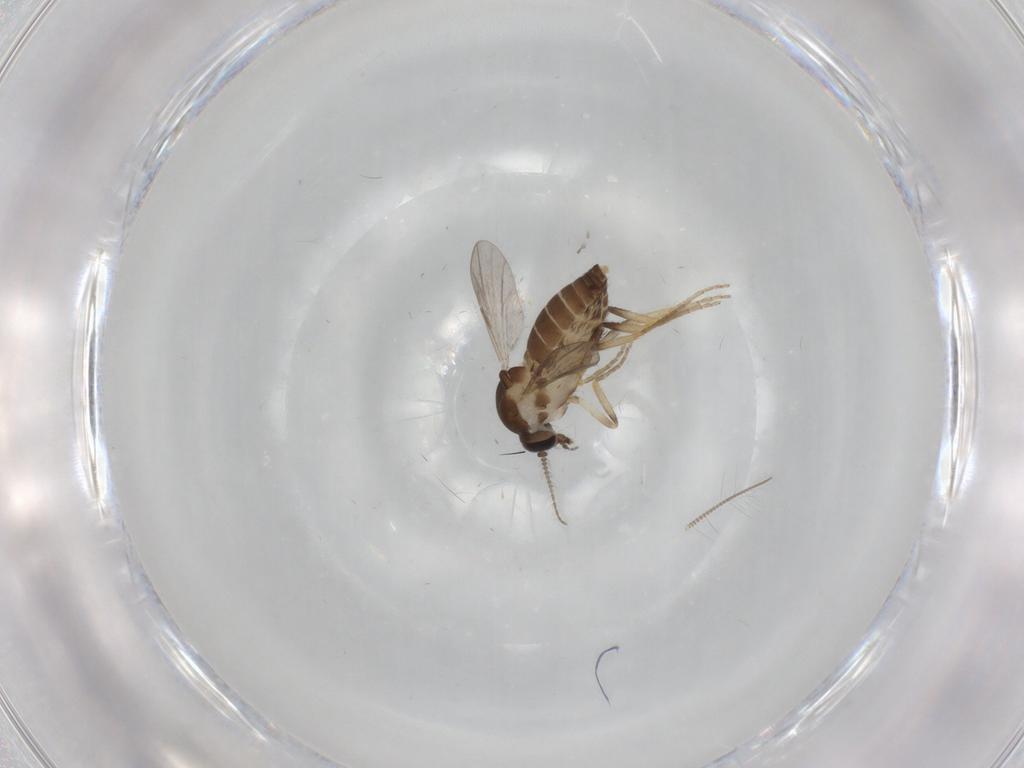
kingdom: Animalia
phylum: Arthropoda
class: Insecta
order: Diptera
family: Ceratopogonidae
